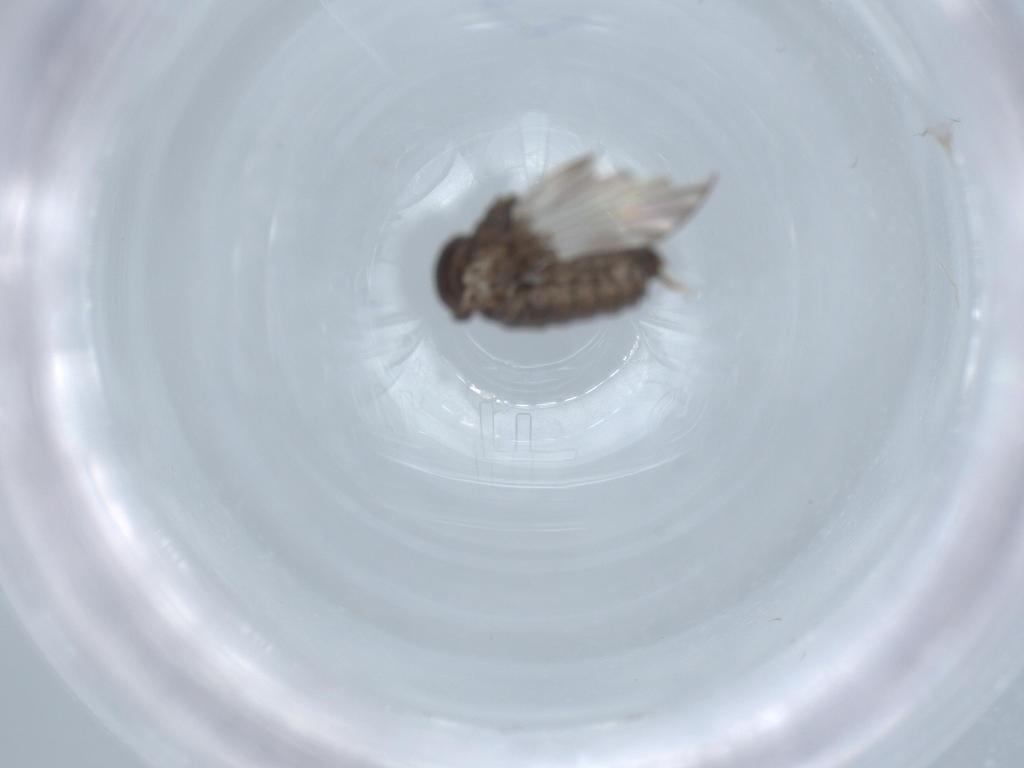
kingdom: Animalia
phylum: Arthropoda
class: Insecta
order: Diptera
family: Psychodidae
